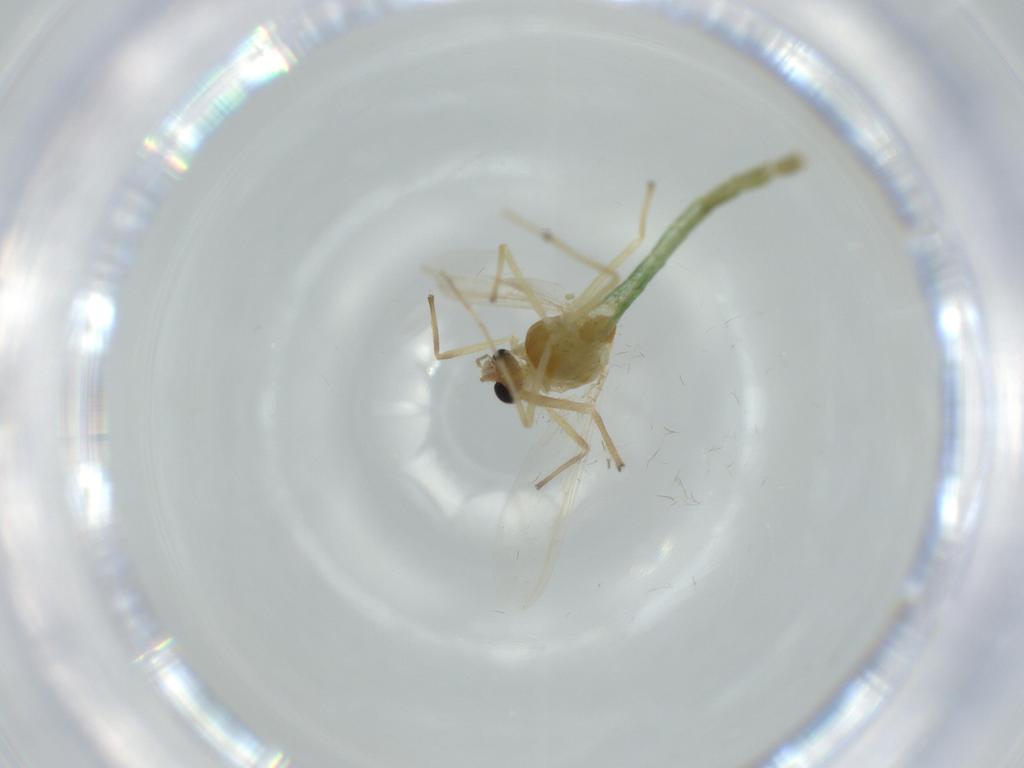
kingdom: Animalia
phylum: Arthropoda
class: Insecta
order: Diptera
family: Chironomidae
